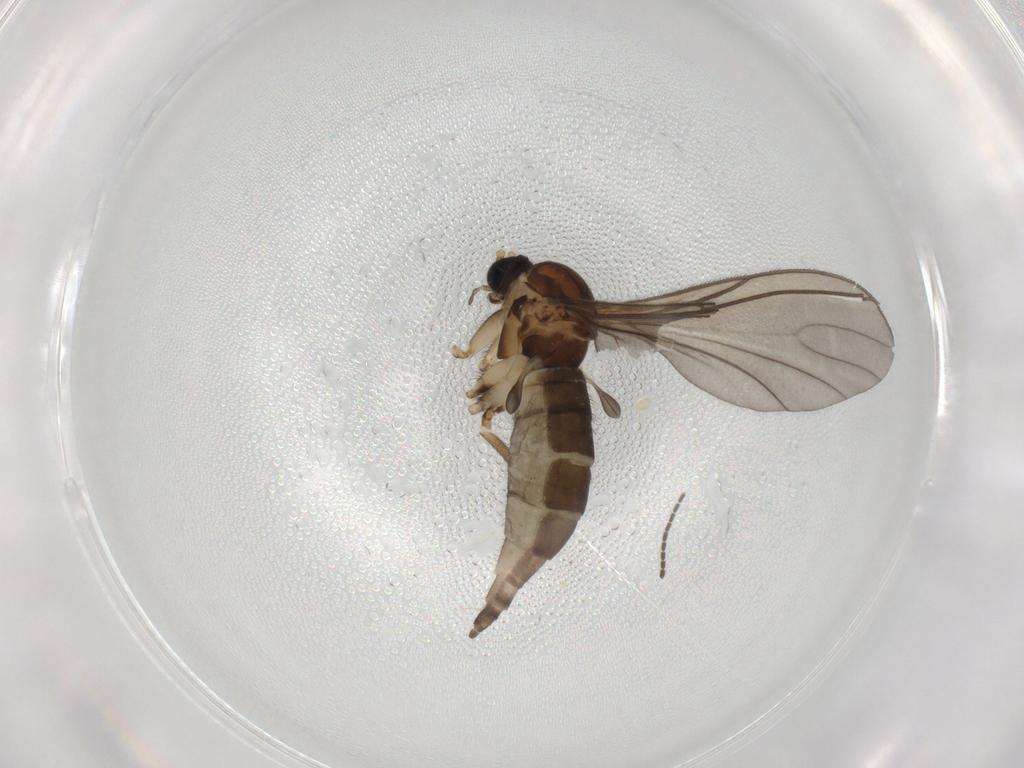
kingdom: Animalia
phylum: Arthropoda
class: Insecta
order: Diptera
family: Sciaridae
